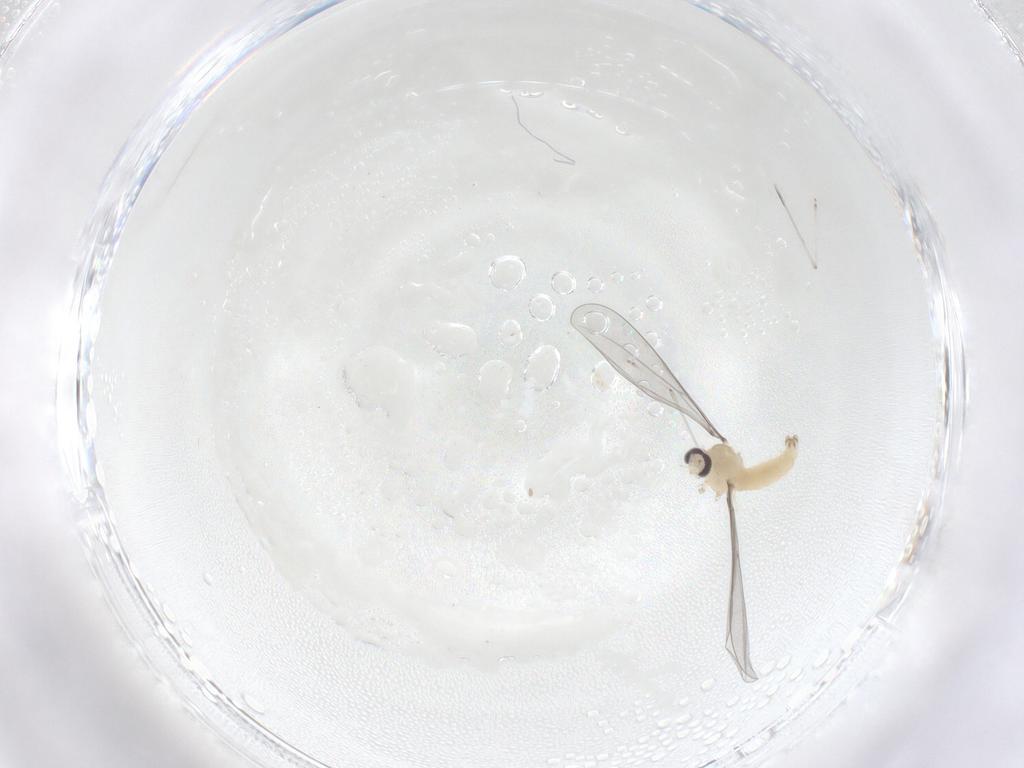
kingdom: Animalia
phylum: Arthropoda
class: Insecta
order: Diptera
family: Cecidomyiidae
